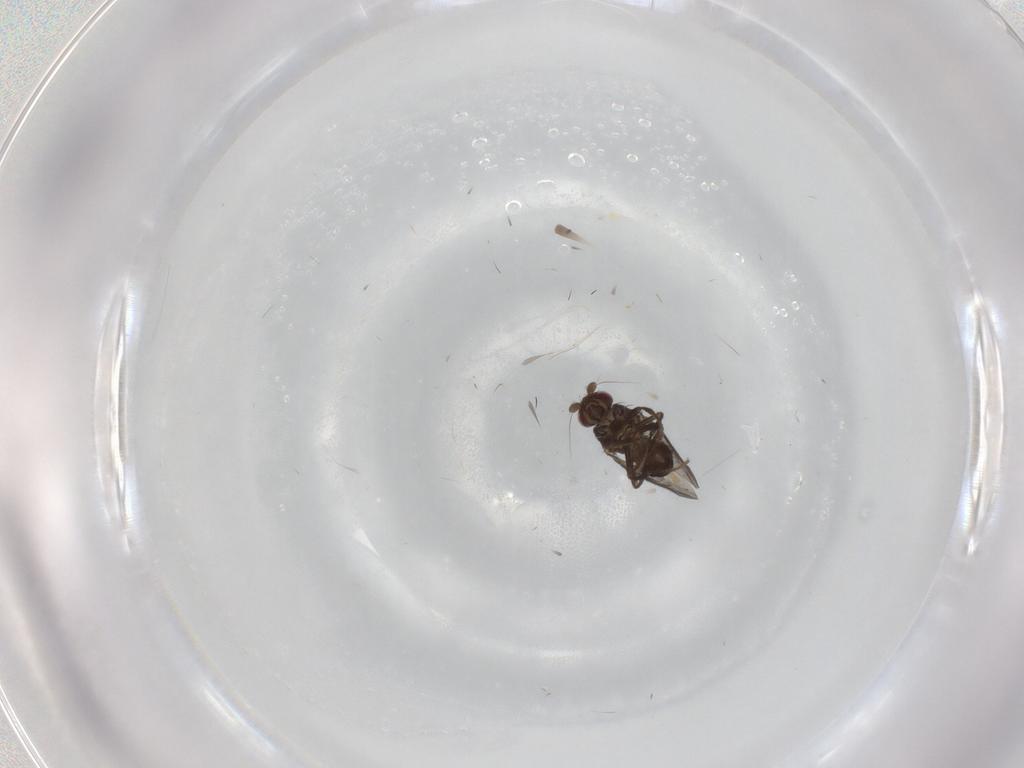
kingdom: Animalia
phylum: Arthropoda
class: Insecta
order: Diptera
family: Sphaeroceridae
